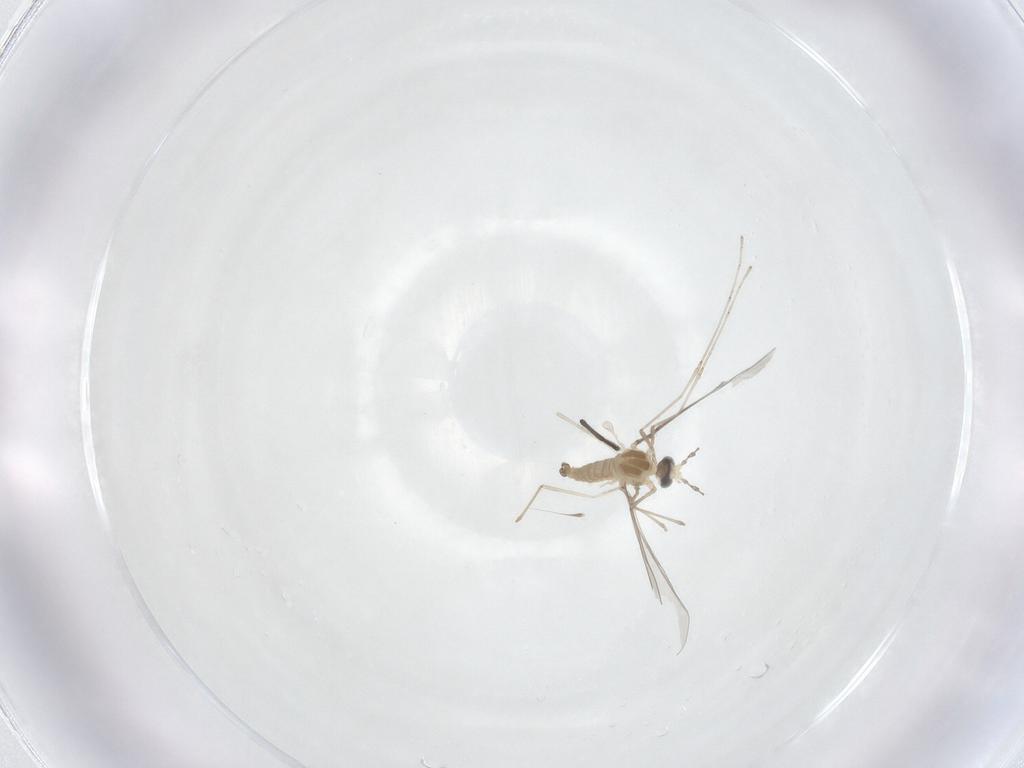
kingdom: Animalia
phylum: Arthropoda
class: Insecta
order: Diptera
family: Cecidomyiidae
